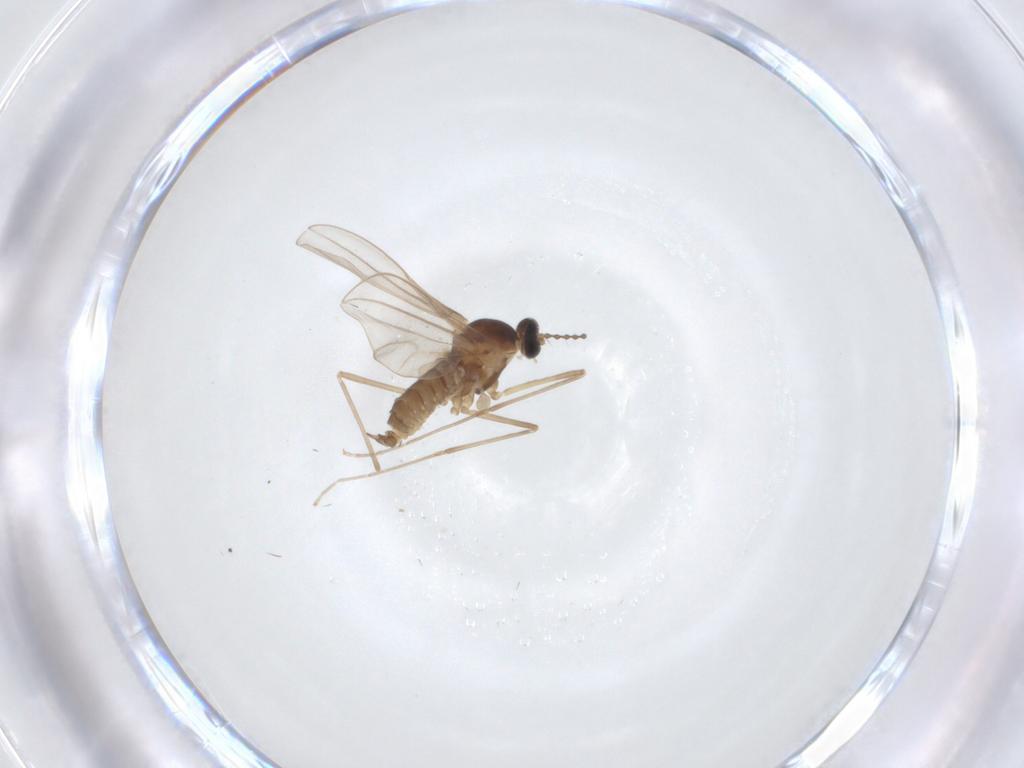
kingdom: Animalia
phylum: Arthropoda
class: Insecta
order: Diptera
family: Cecidomyiidae
